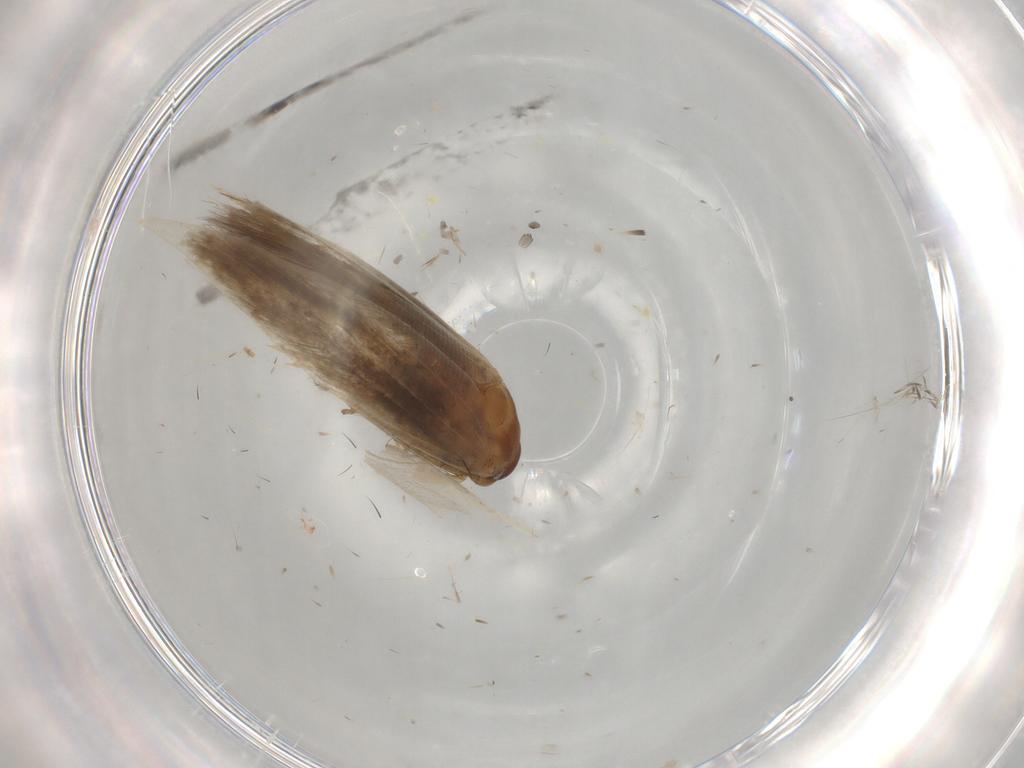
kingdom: Animalia
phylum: Arthropoda
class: Insecta
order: Lepidoptera
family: Cosmopterigidae
